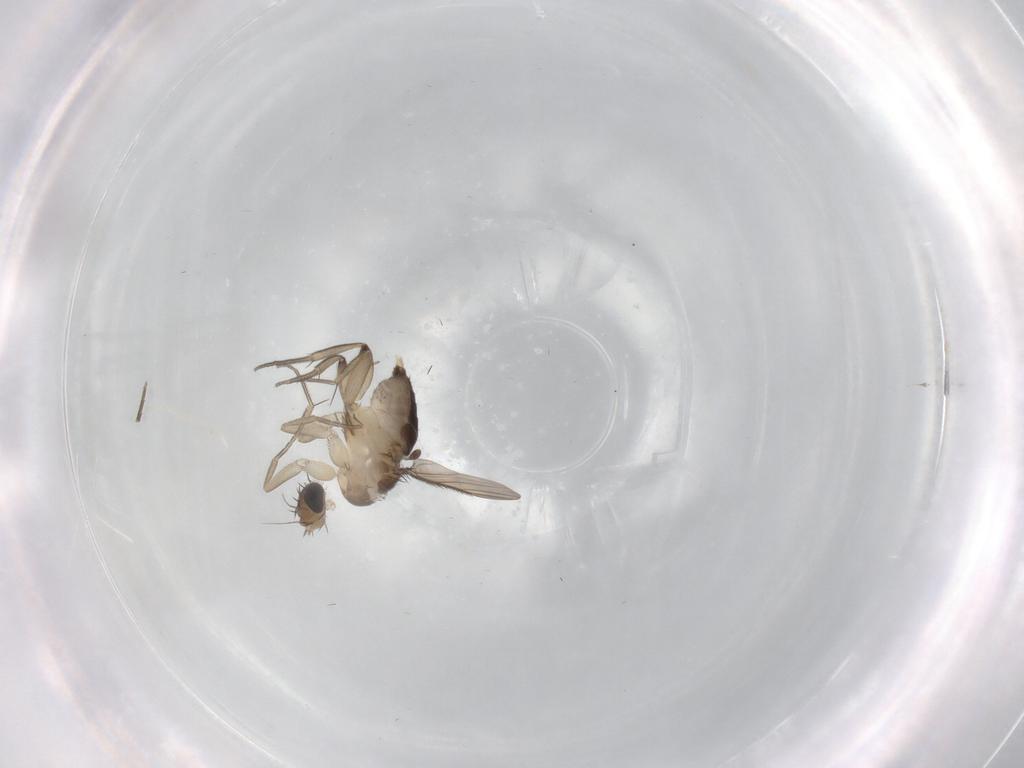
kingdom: Animalia
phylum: Arthropoda
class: Insecta
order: Diptera
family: Phoridae
